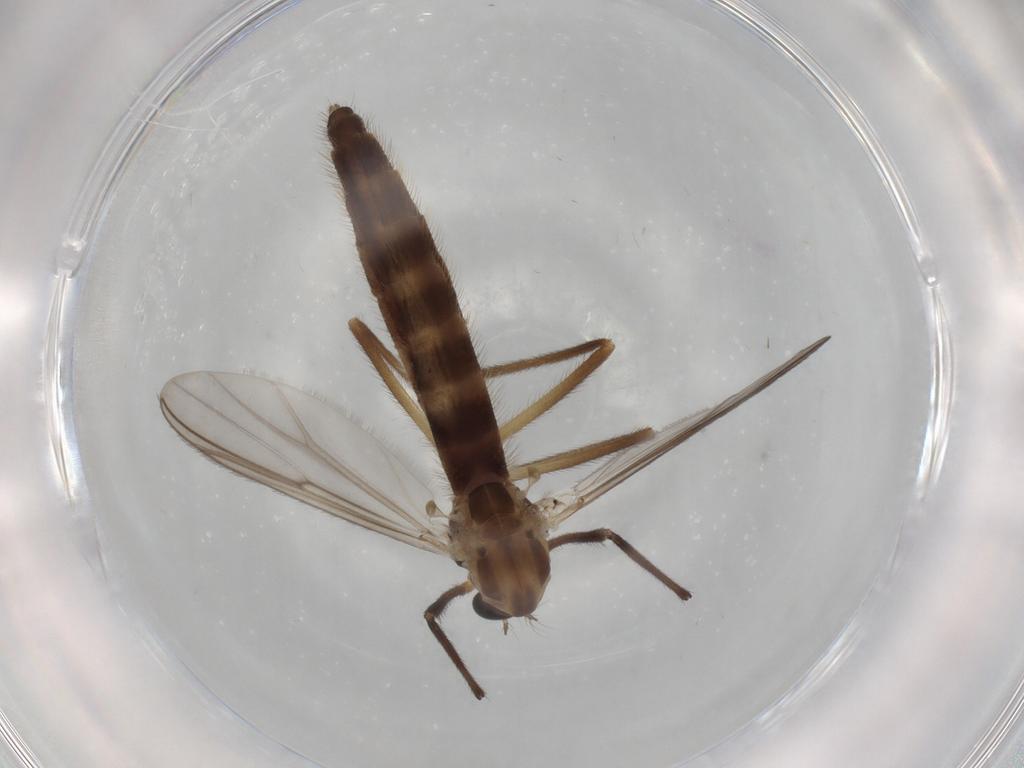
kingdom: Animalia
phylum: Arthropoda
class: Insecta
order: Diptera
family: Chironomidae
